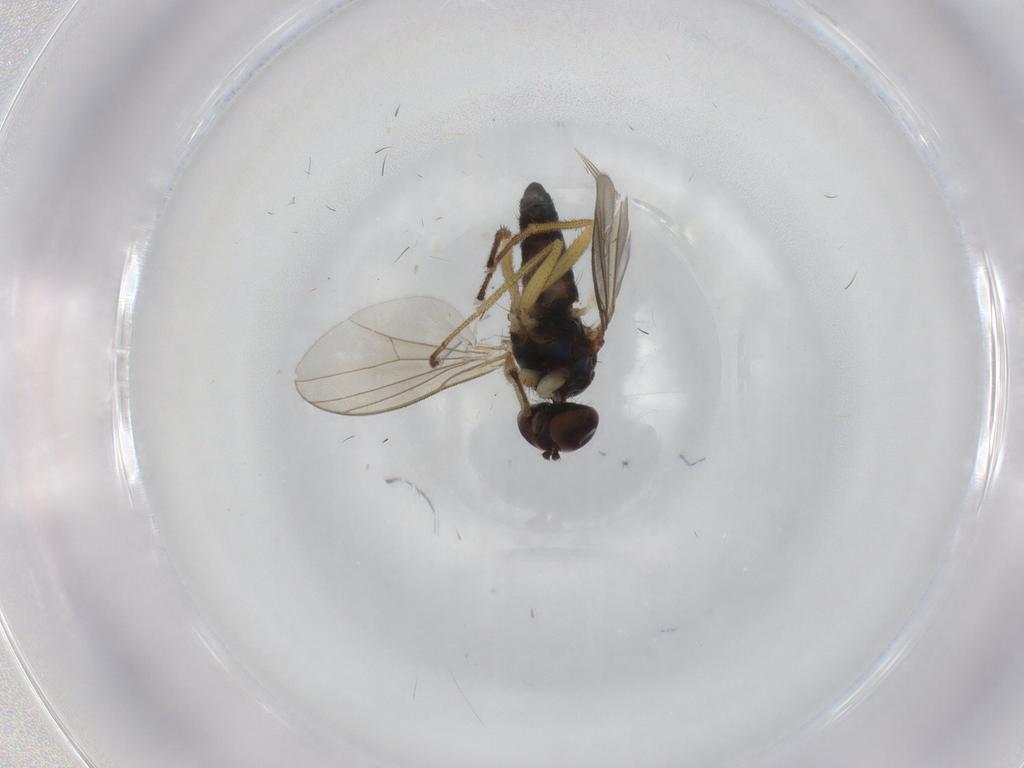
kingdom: Animalia
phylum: Arthropoda
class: Insecta
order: Diptera
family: Dolichopodidae
